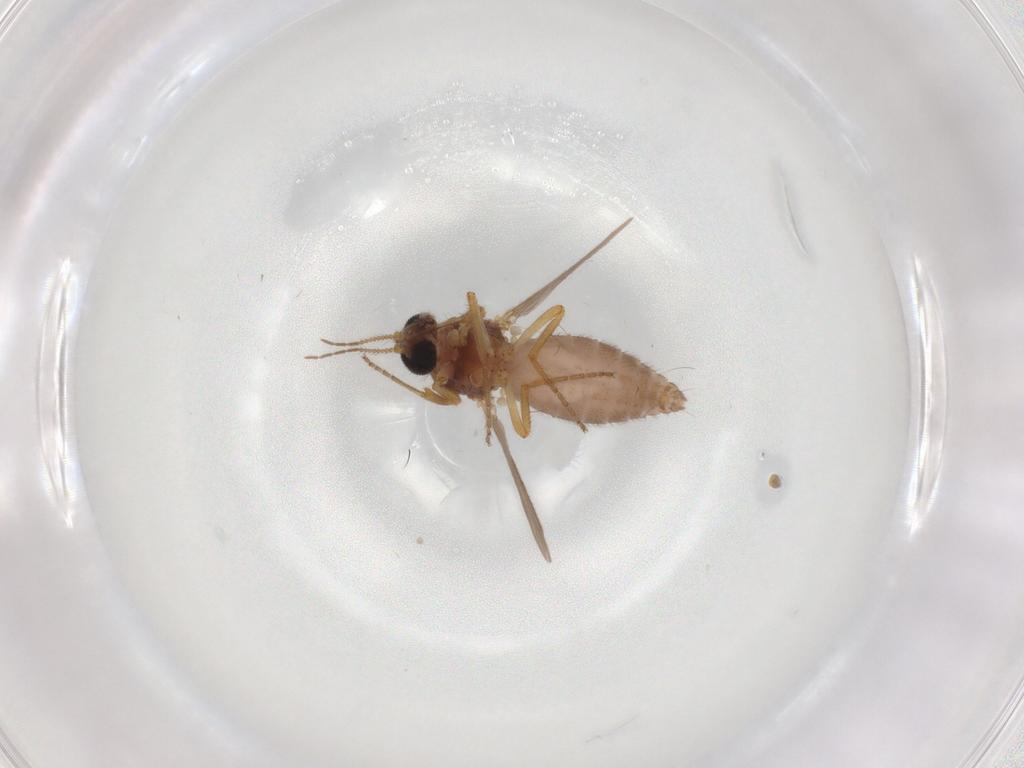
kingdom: Animalia
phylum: Arthropoda
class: Insecta
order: Diptera
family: Ceratopogonidae
